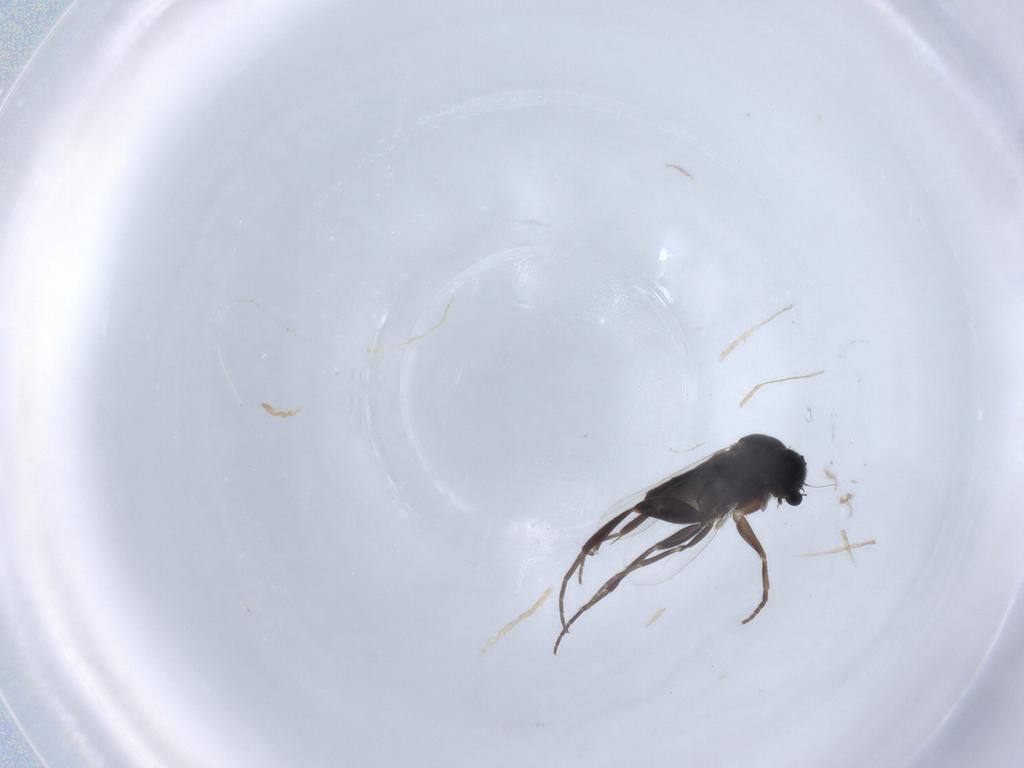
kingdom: Animalia
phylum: Arthropoda
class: Insecta
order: Diptera
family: Phoridae
